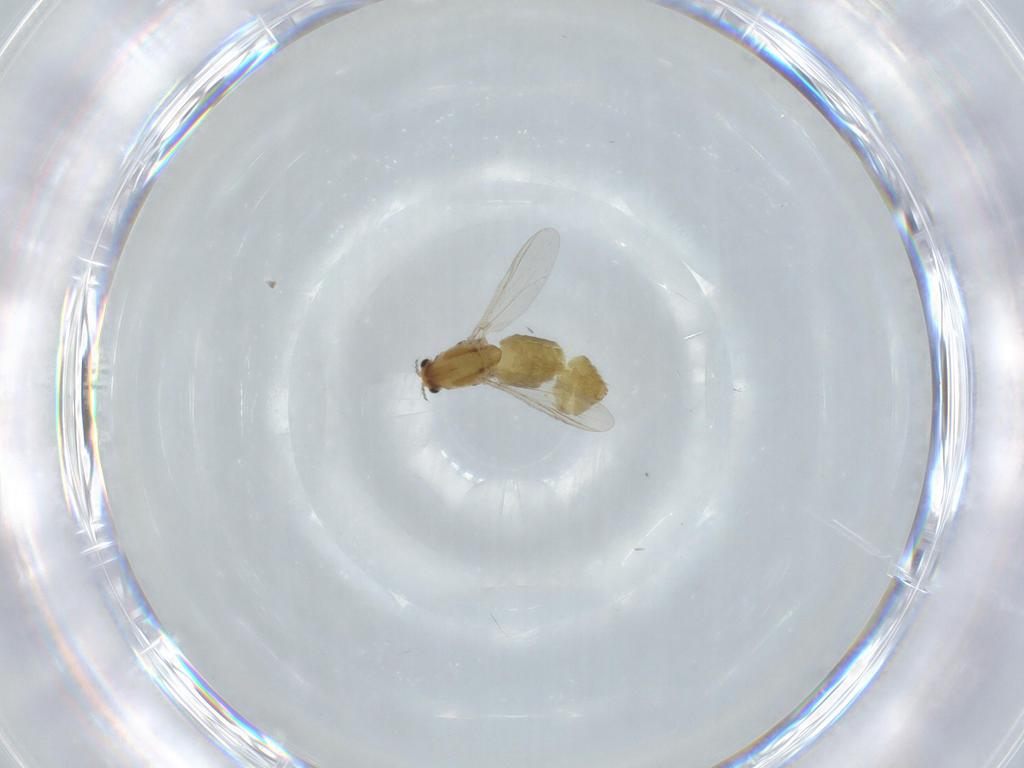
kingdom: Animalia
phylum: Arthropoda
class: Insecta
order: Diptera
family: Chironomidae
